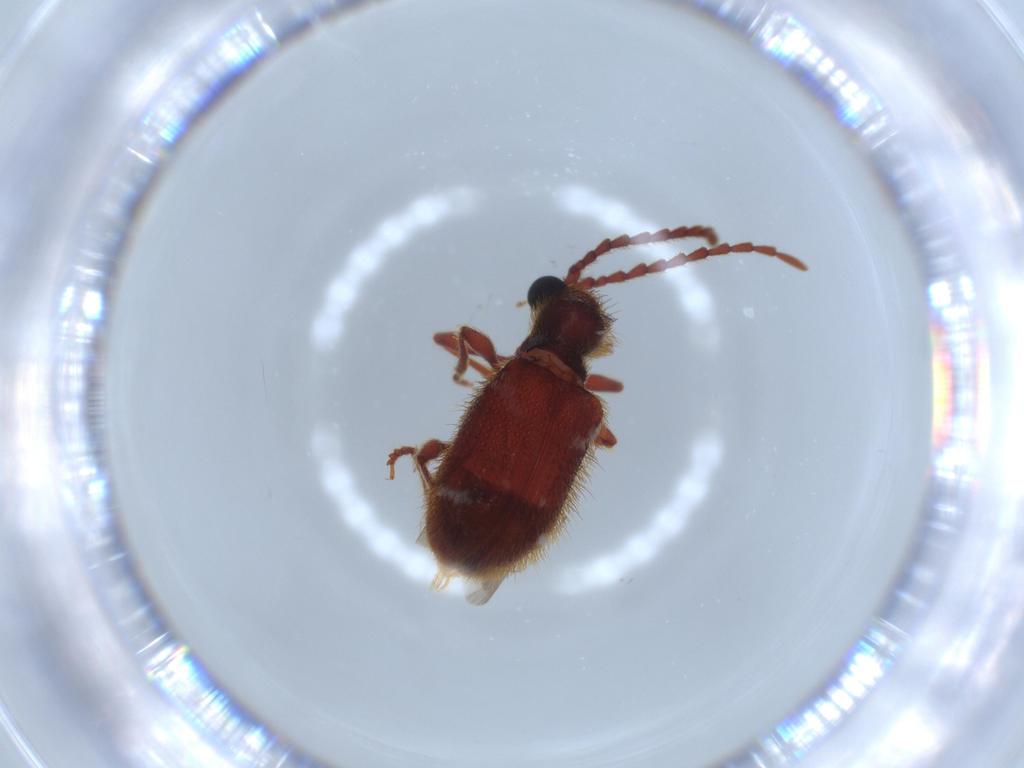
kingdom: Animalia
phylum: Arthropoda
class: Insecta
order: Coleoptera
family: Ptinidae
